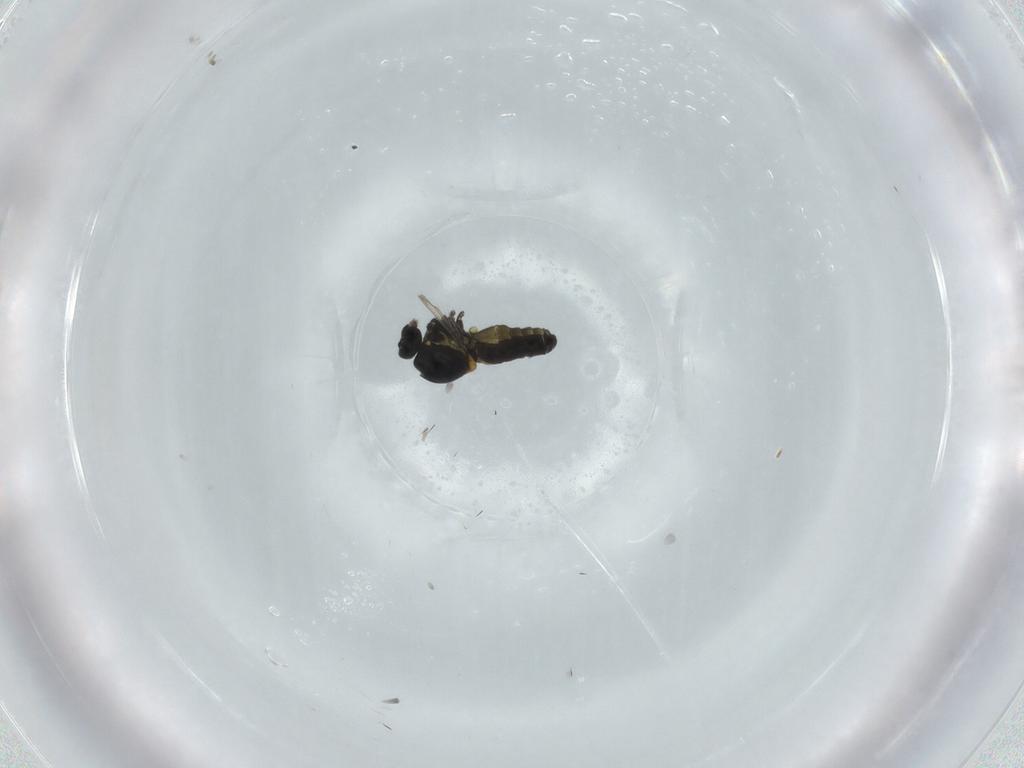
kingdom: Animalia
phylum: Arthropoda
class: Insecta
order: Diptera
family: Ceratopogonidae
